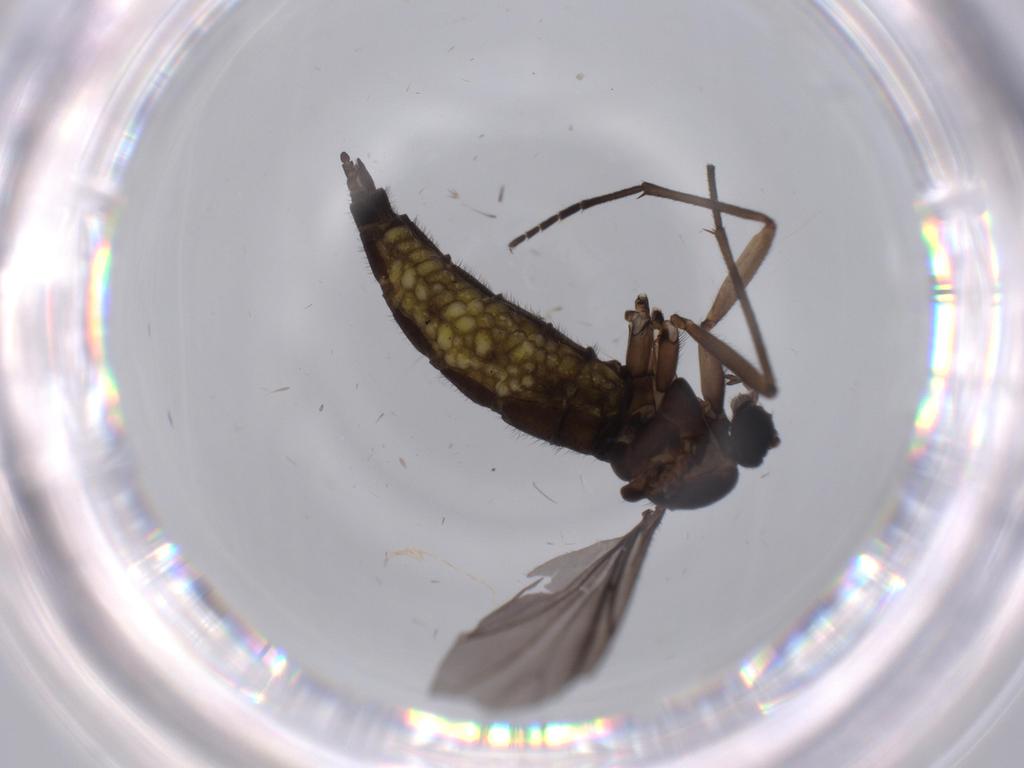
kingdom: Animalia
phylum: Arthropoda
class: Insecta
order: Diptera
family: Sciaridae
